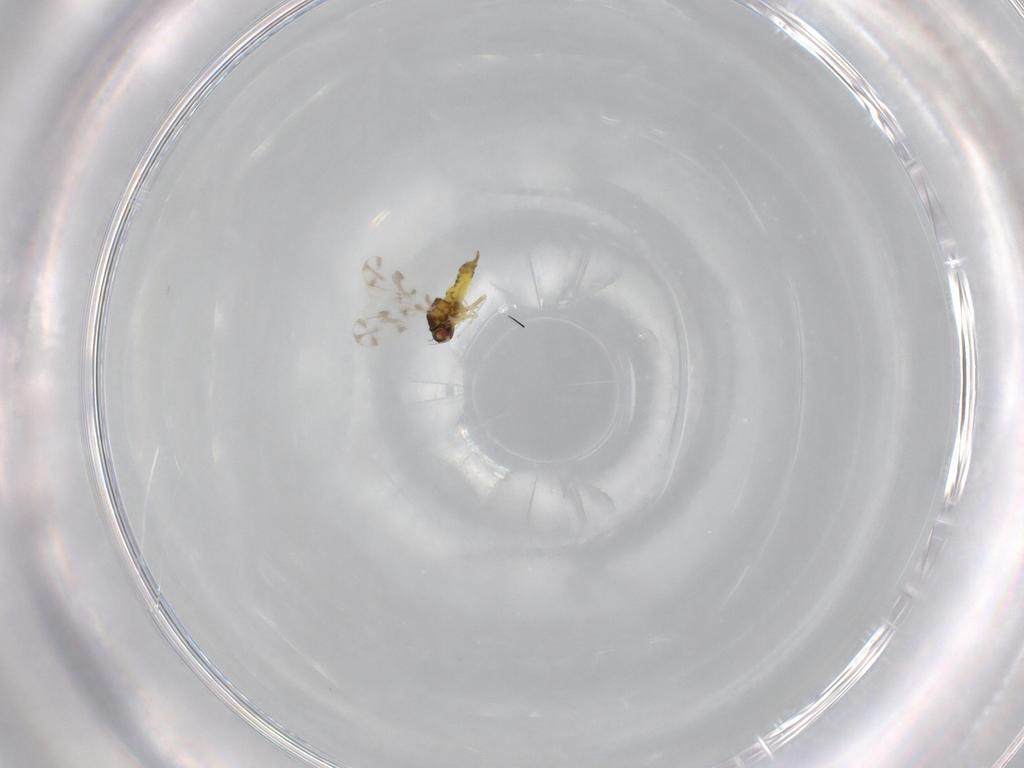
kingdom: Animalia
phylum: Arthropoda
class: Insecta
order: Hemiptera
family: Aleyrodidae
